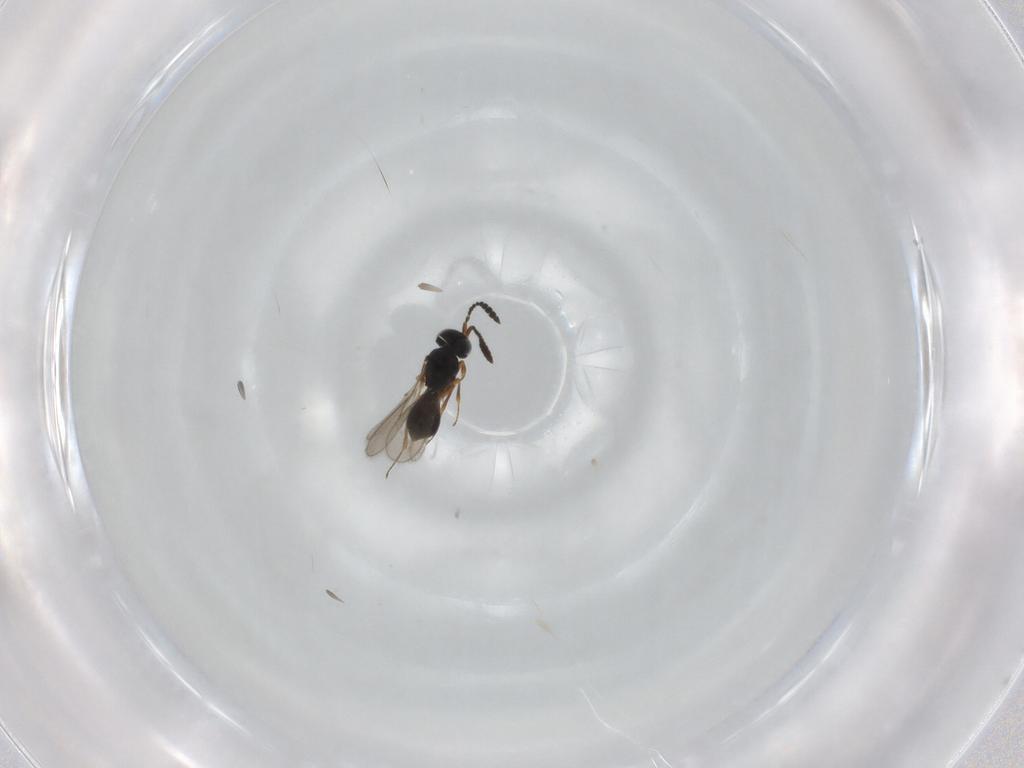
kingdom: Animalia
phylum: Arthropoda
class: Insecta
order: Hymenoptera
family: Scelionidae
